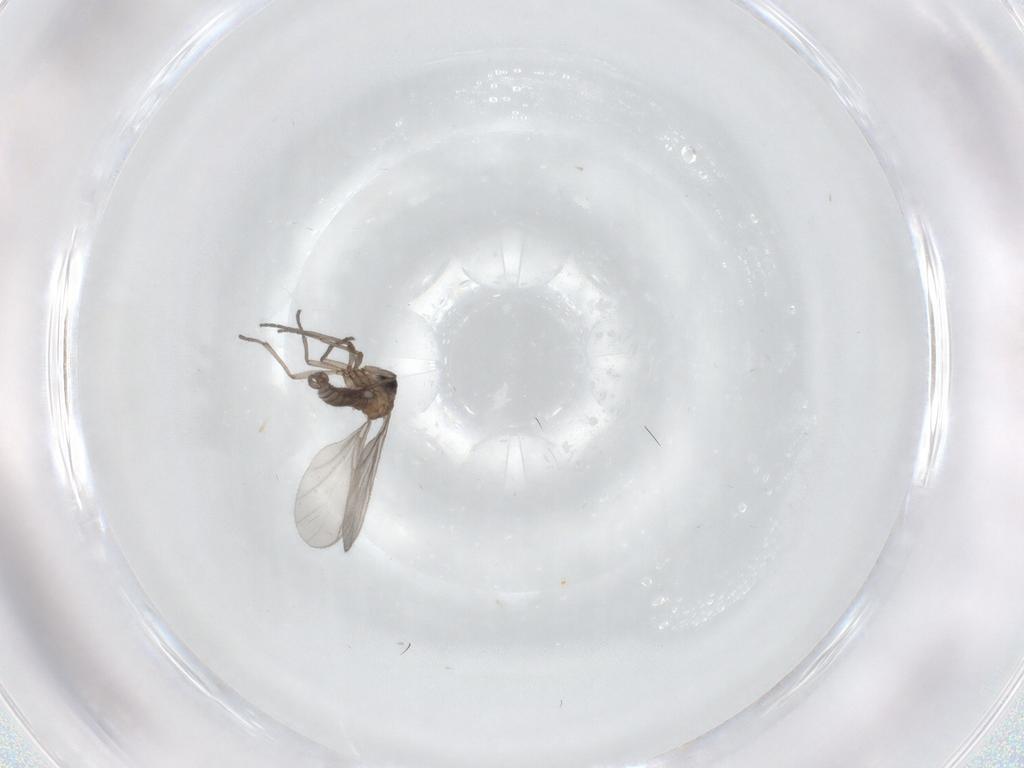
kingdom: Animalia
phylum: Arthropoda
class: Insecta
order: Diptera
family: Sciaridae
